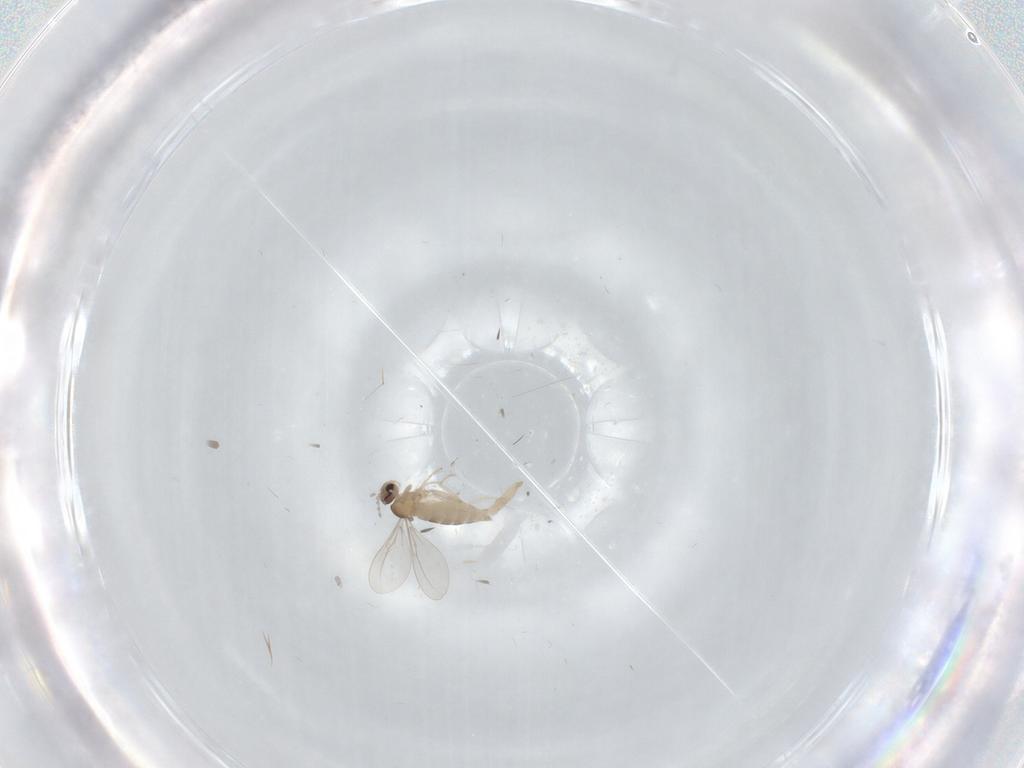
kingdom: Animalia
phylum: Arthropoda
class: Insecta
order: Diptera
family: Cecidomyiidae
